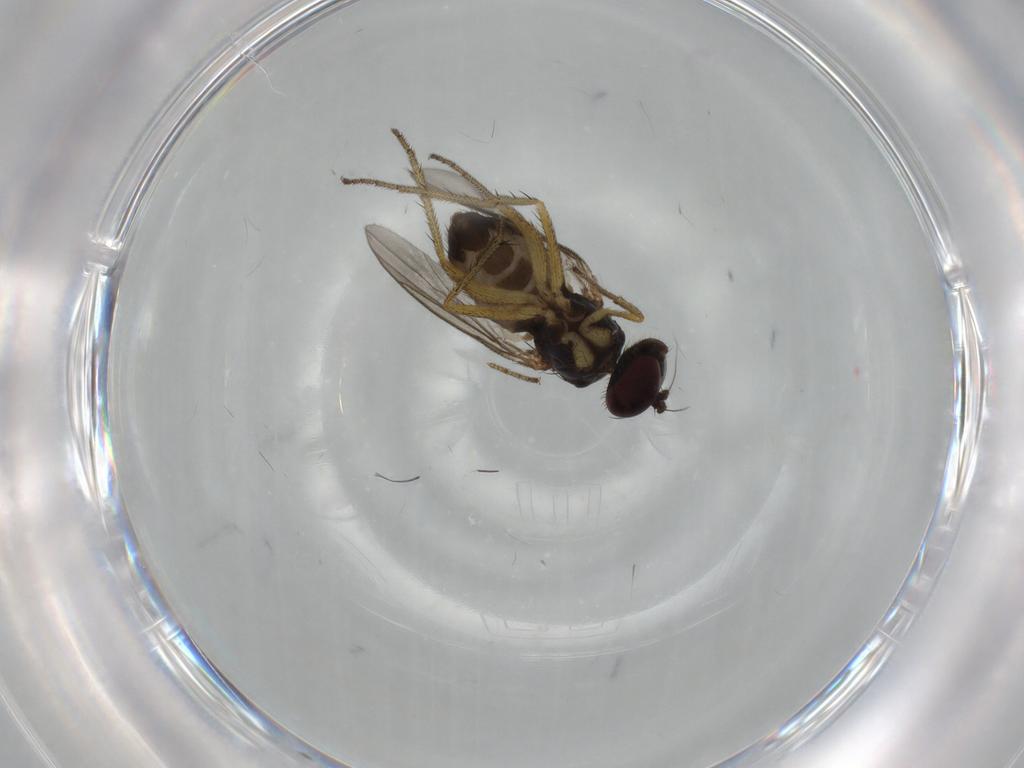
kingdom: Animalia
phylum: Arthropoda
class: Insecta
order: Diptera
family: Dolichopodidae
